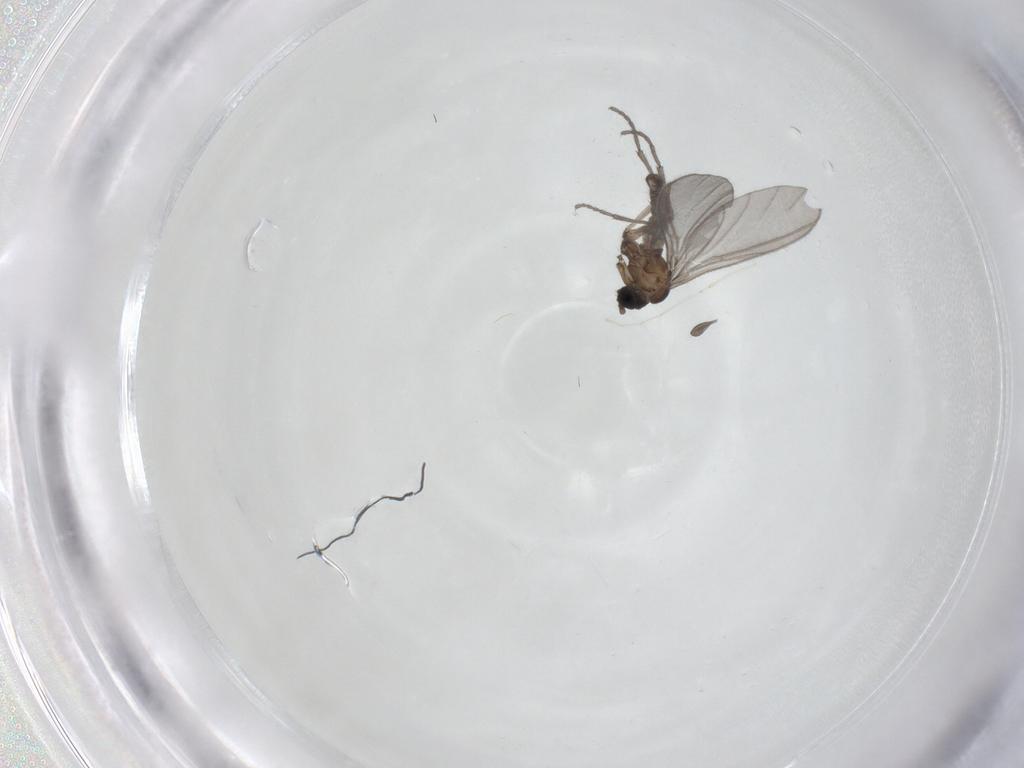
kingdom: Animalia
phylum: Arthropoda
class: Insecta
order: Diptera
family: Sciaridae
